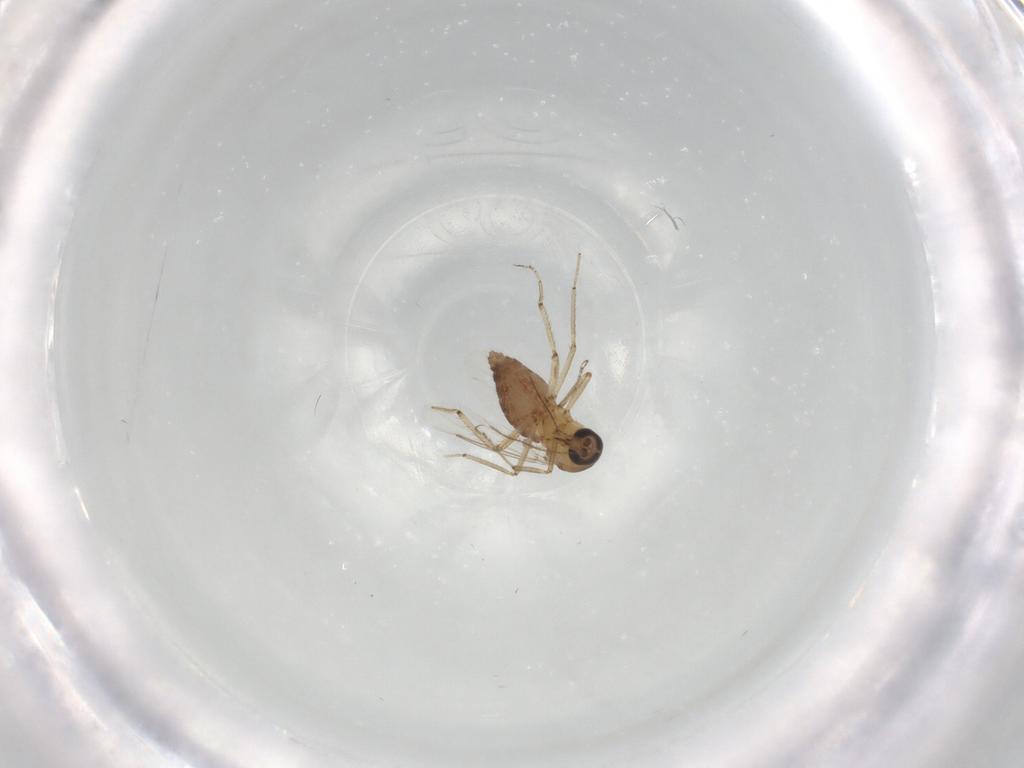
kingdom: Animalia
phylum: Arthropoda
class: Insecta
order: Diptera
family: Ceratopogonidae
